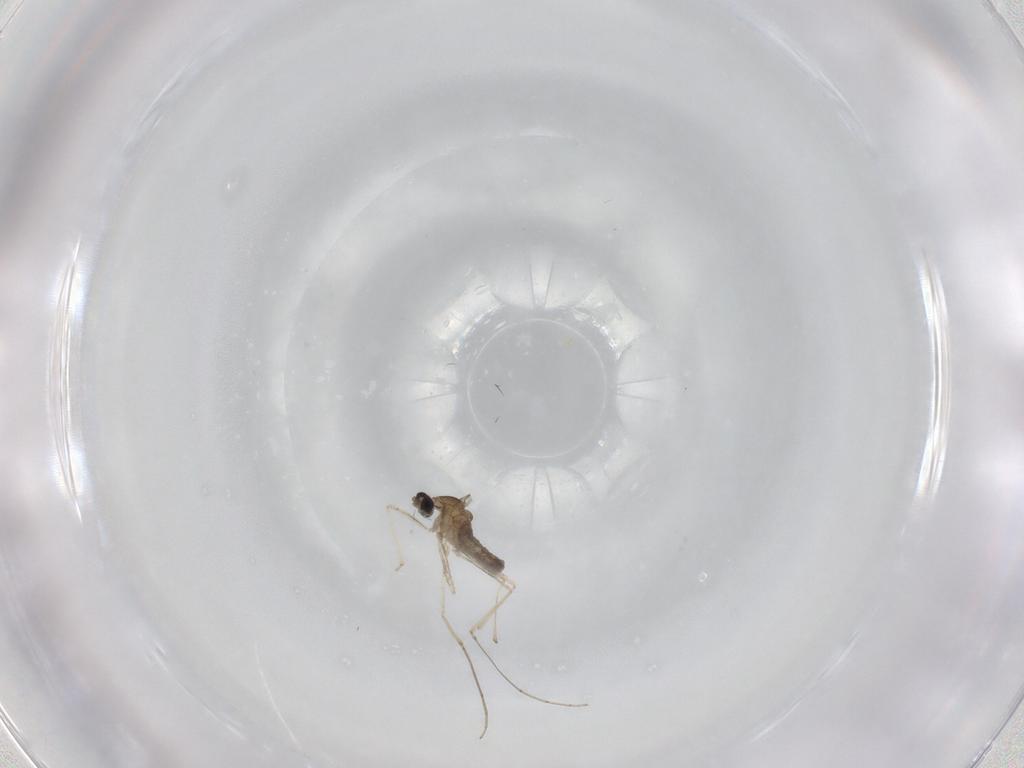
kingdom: Animalia
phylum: Arthropoda
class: Insecta
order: Diptera
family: Cecidomyiidae
